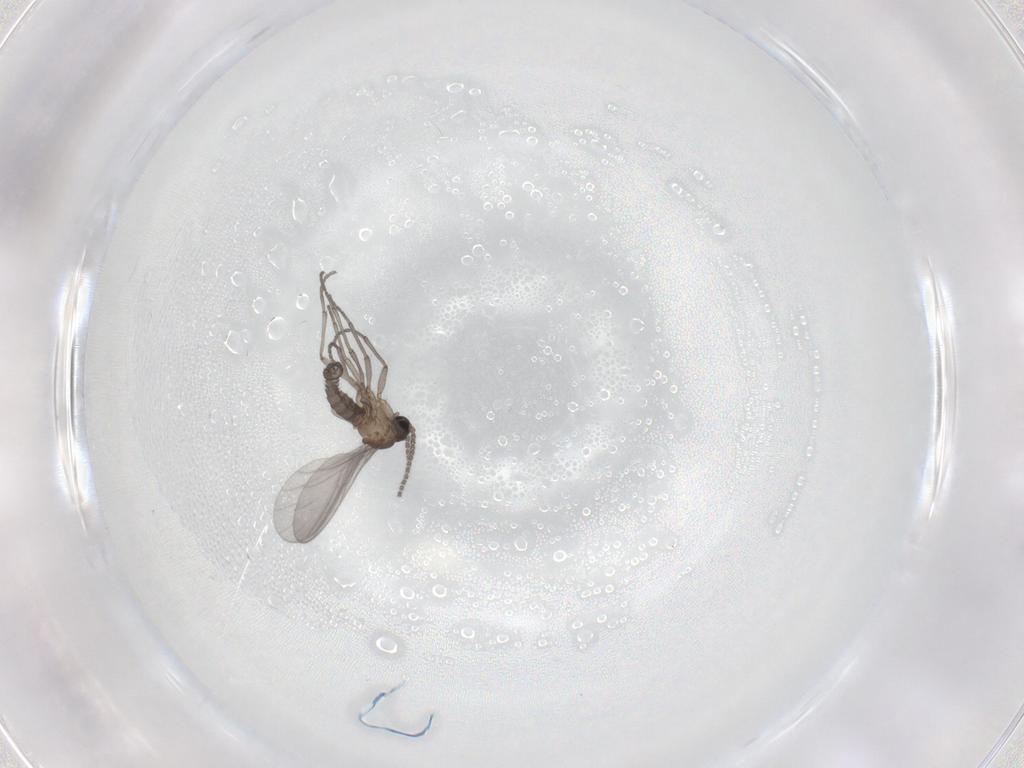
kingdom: Animalia
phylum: Arthropoda
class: Insecta
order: Diptera
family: Chironomidae
